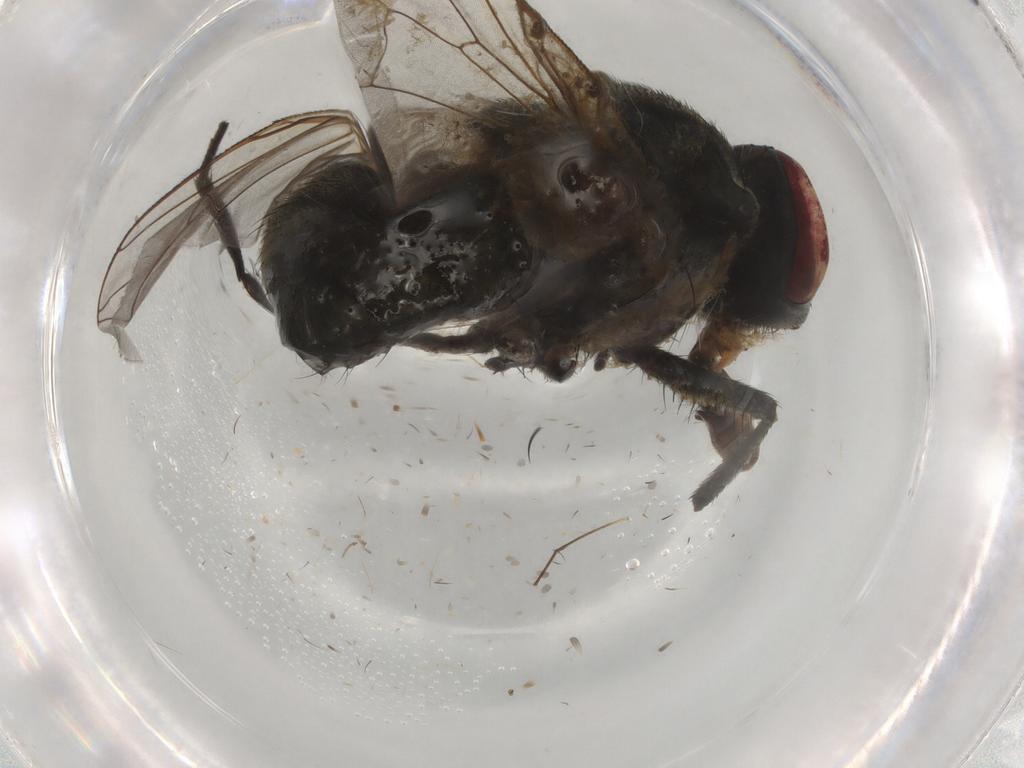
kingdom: Animalia
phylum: Arthropoda
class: Insecta
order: Diptera
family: Muscidae
